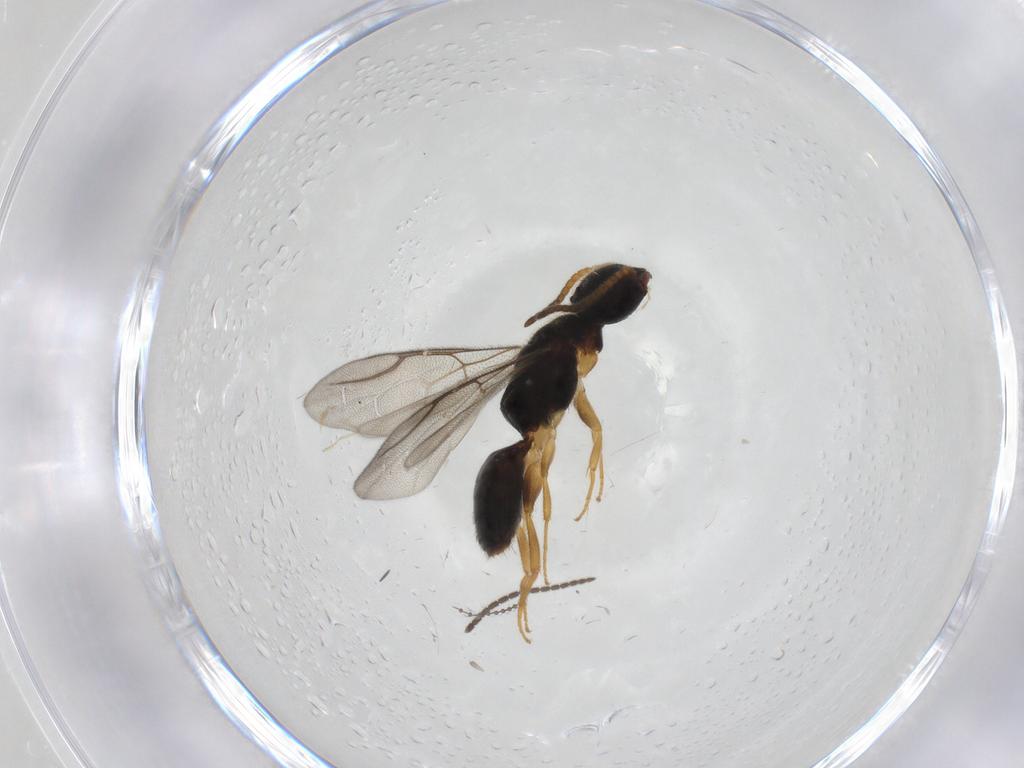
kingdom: Animalia
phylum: Arthropoda
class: Insecta
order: Hymenoptera
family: Bethylidae
